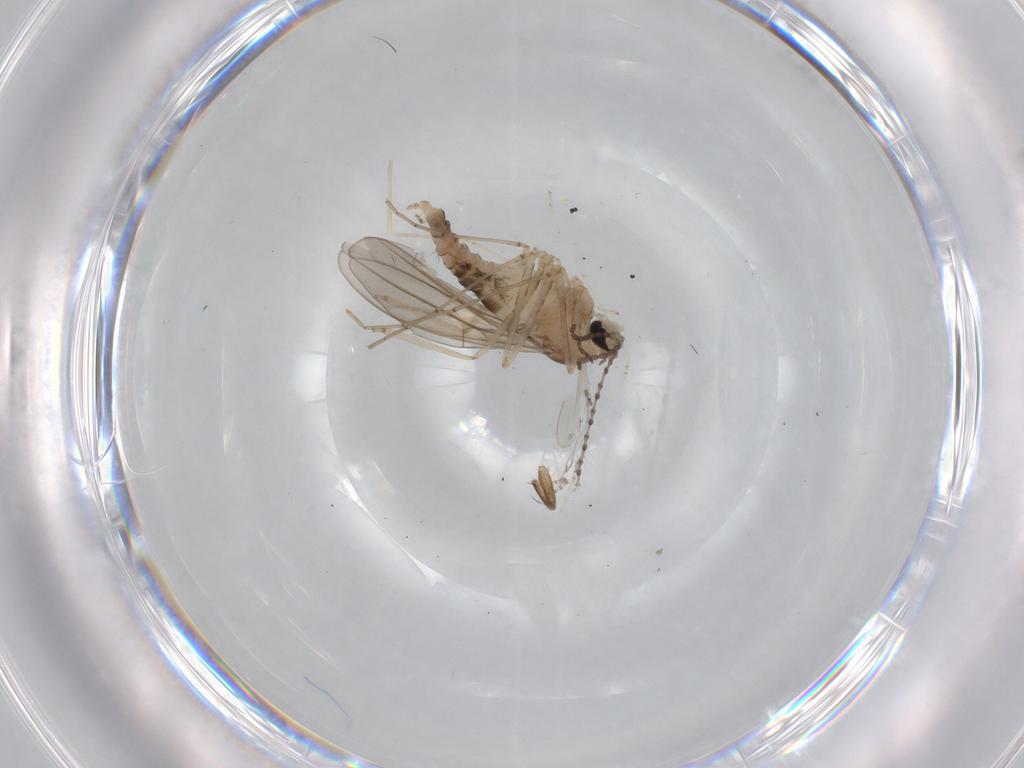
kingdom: Animalia
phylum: Arthropoda
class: Insecta
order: Diptera
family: Cecidomyiidae
